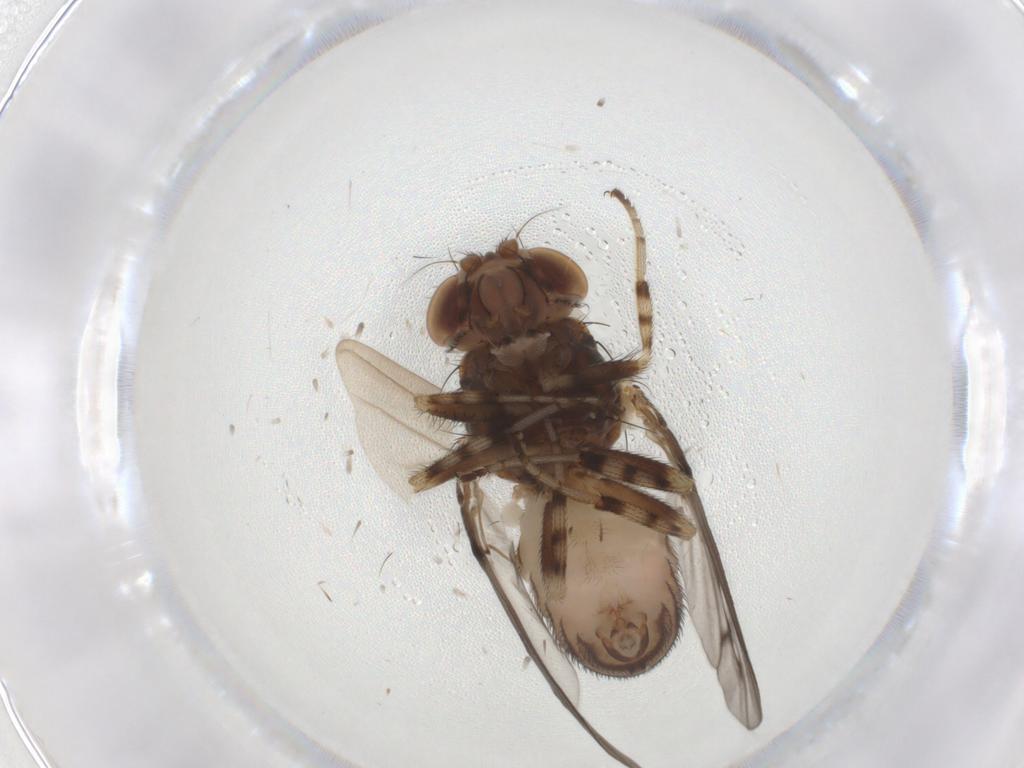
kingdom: Animalia
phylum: Arthropoda
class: Insecta
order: Diptera
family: Drosophilidae
